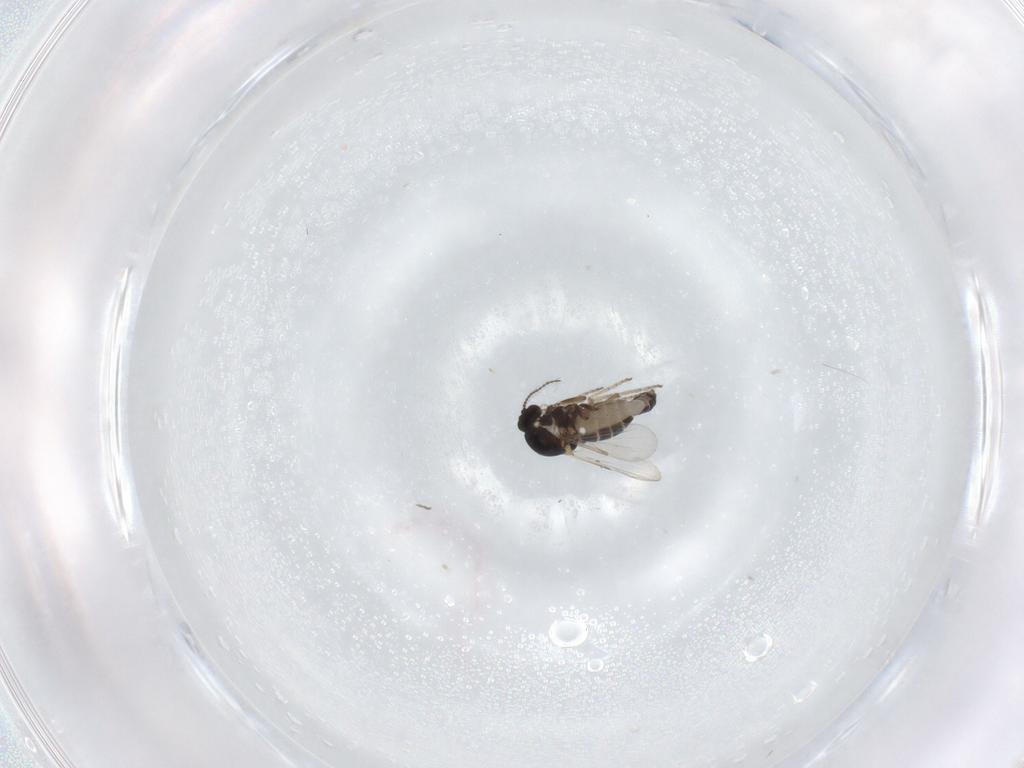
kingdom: Animalia
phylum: Arthropoda
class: Insecta
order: Diptera
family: Ceratopogonidae
